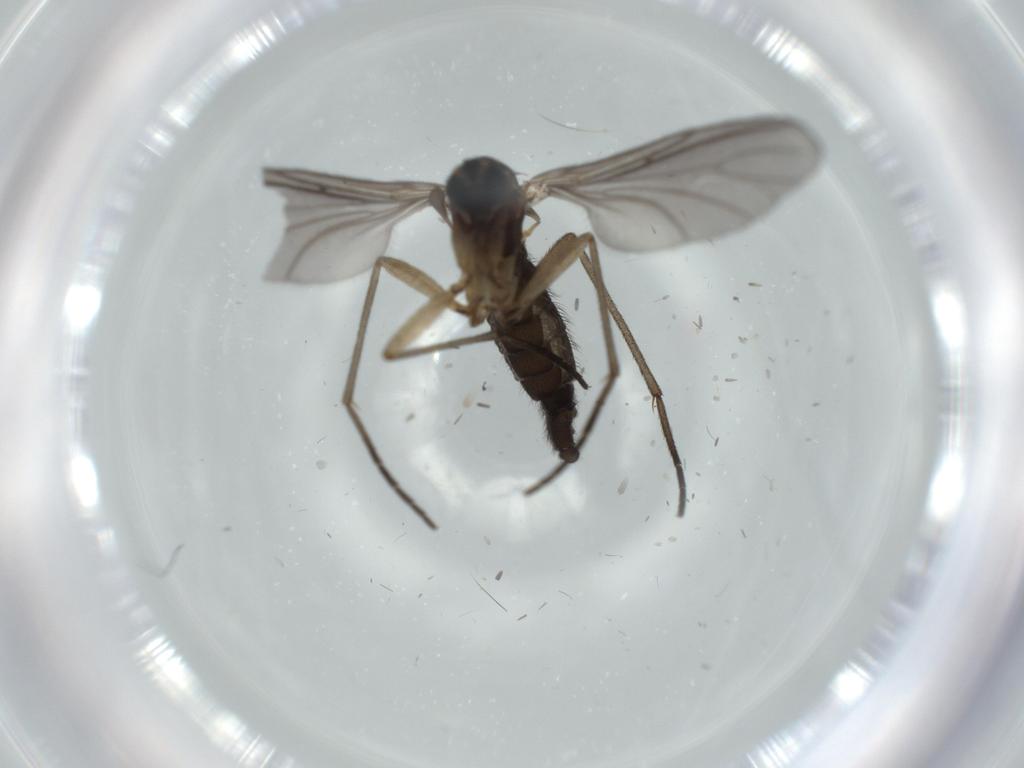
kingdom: Animalia
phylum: Arthropoda
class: Insecta
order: Diptera
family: Sciaridae
